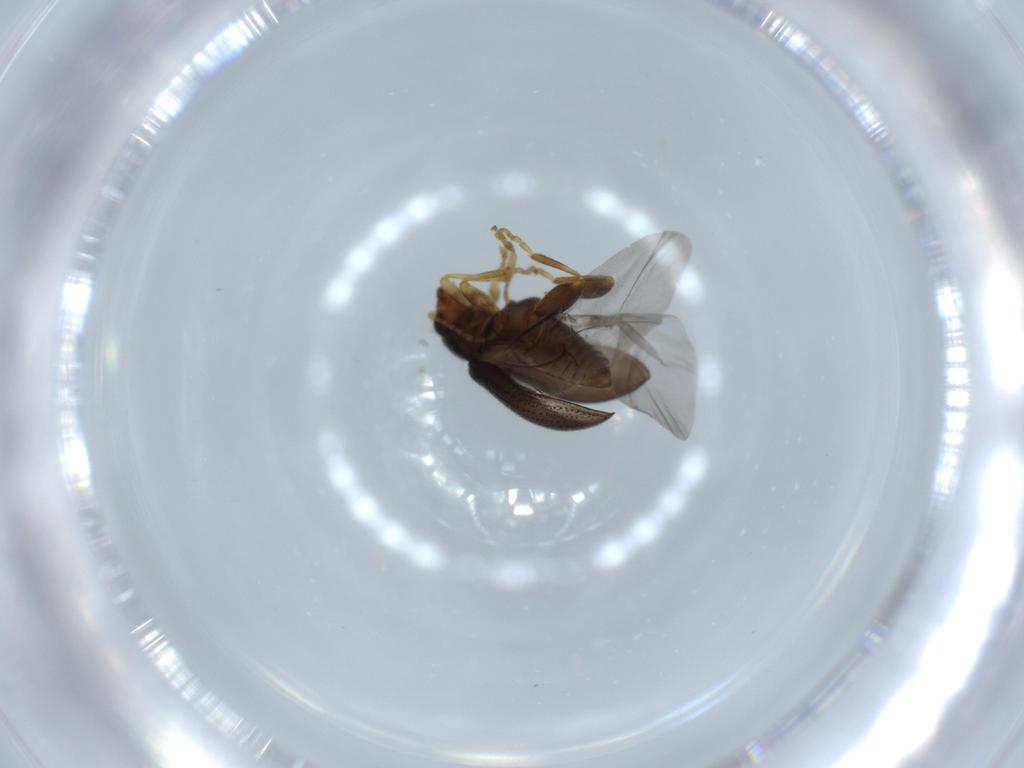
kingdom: Animalia
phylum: Arthropoda
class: Insecta
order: Coleoptera
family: Chrysomelidae
